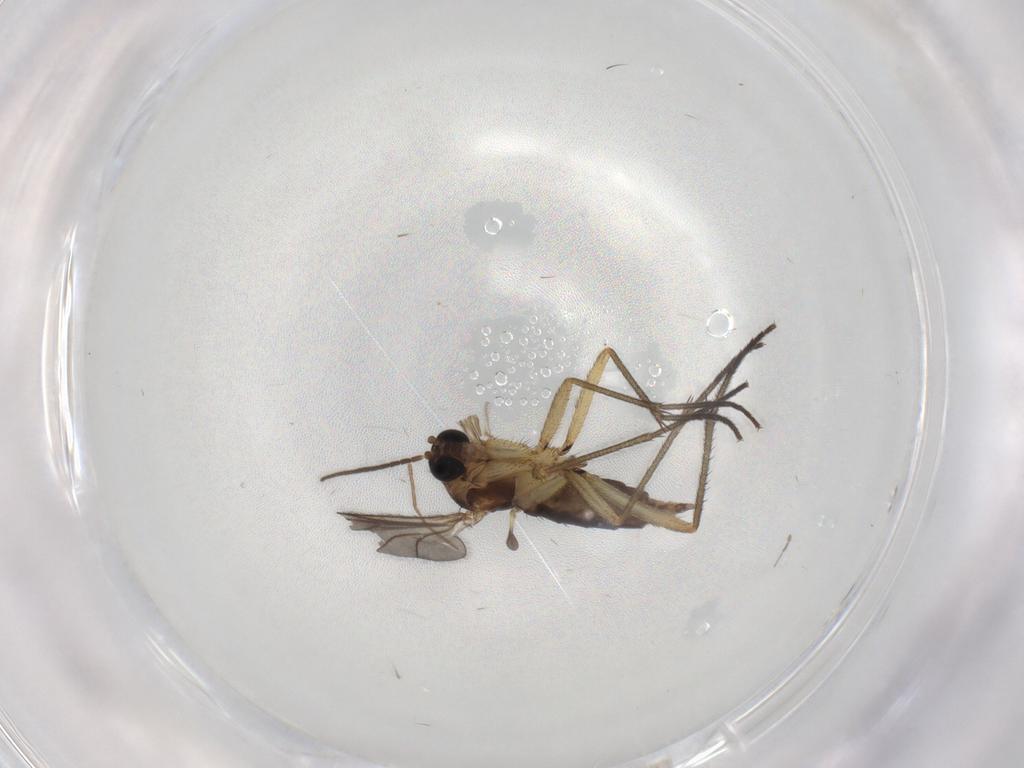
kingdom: Animalia
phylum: Arthropoda
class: Insecta
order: Diptera
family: Sciaridae
